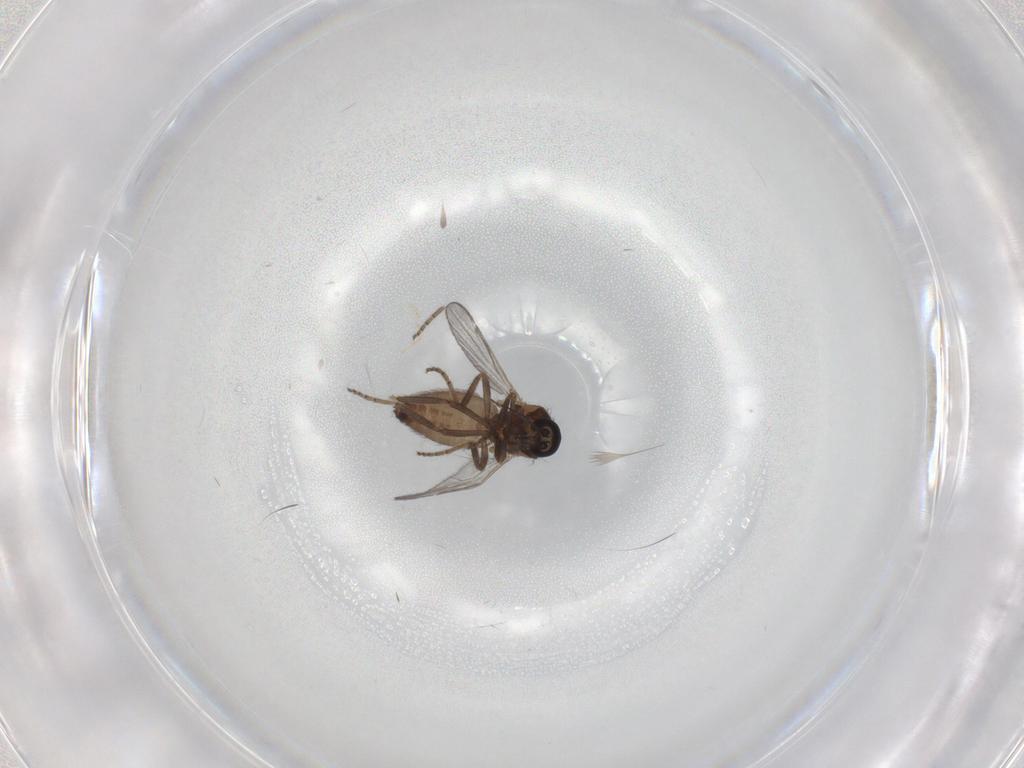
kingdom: Animalia
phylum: Arthropoda
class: Insecta
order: Diptera
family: Ceratopogonidae
